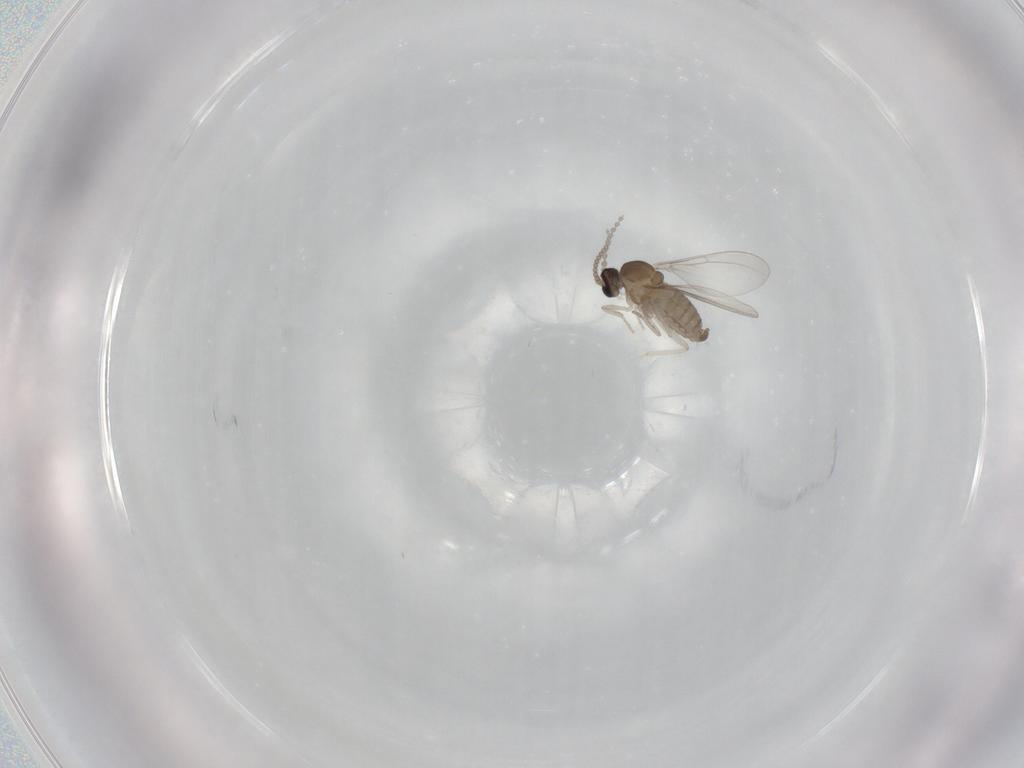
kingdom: Animalia
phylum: Arthropoda
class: Insecta
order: Diptera
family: Cecidomyiidae
